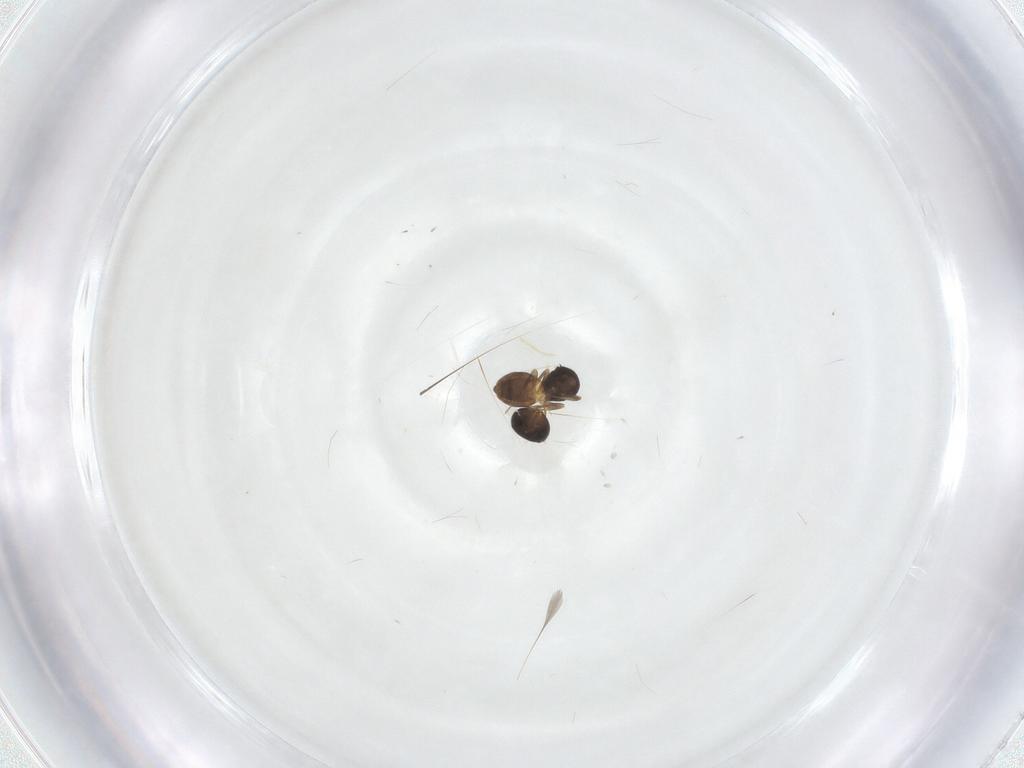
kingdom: Animalia
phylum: Arthropoda
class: Insecta
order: Hymenoptera
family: Scelionidae
